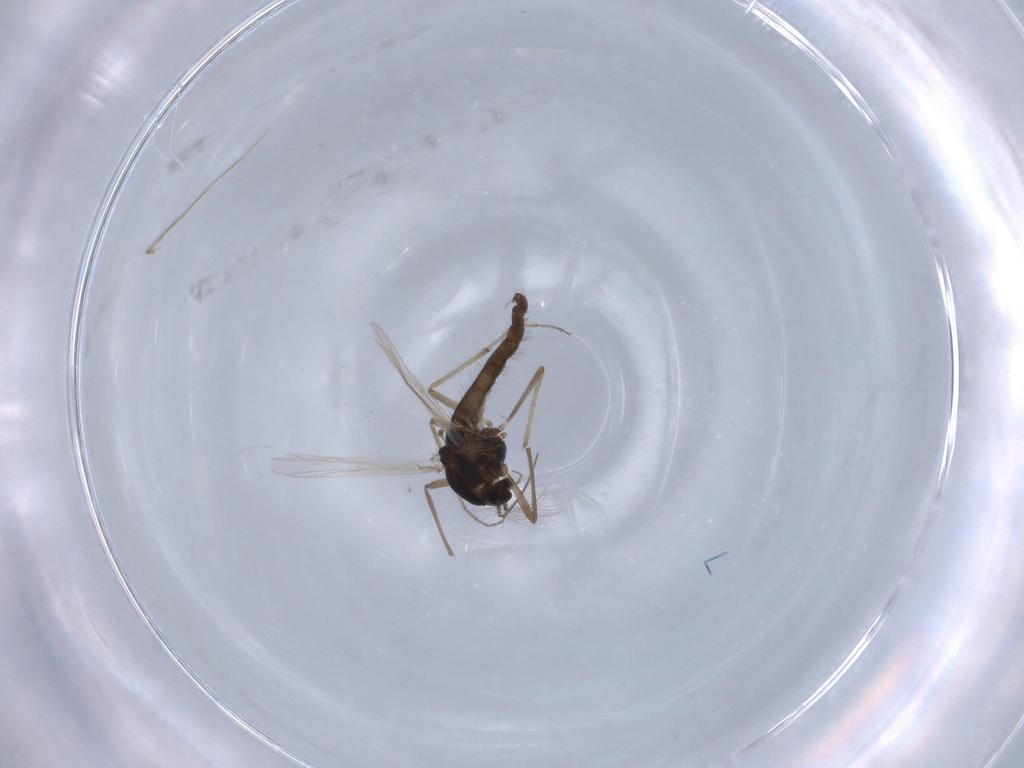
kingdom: Animalia
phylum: Arthropoda
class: Insecta
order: Diptera
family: Chironomidae
